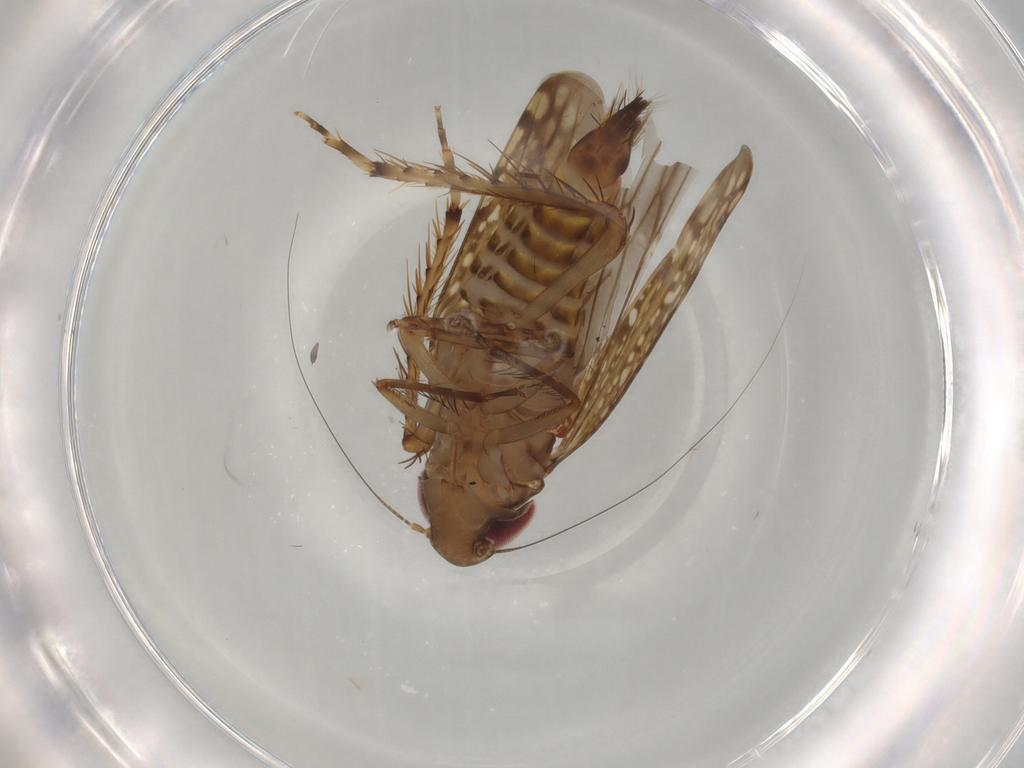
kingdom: Animalia
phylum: Arthropoda
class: Insecta
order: Hemiptera
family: Cicadellidae
